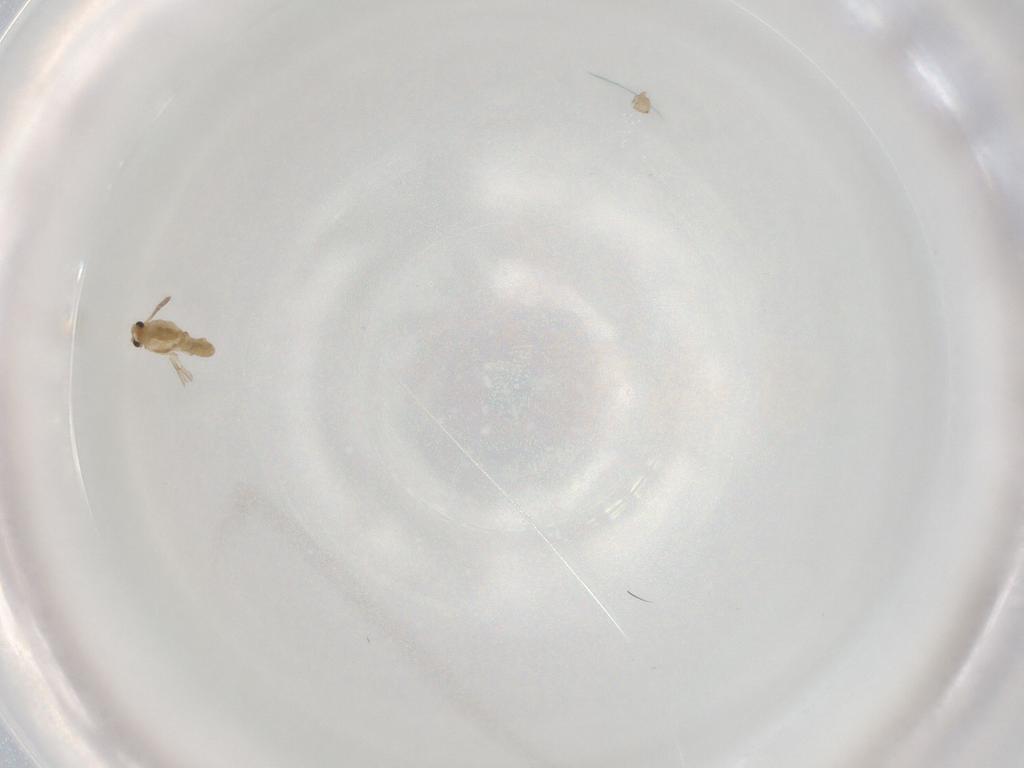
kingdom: Animalia
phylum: Arthropoda
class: Insecta
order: Diptera
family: Chironomidae
